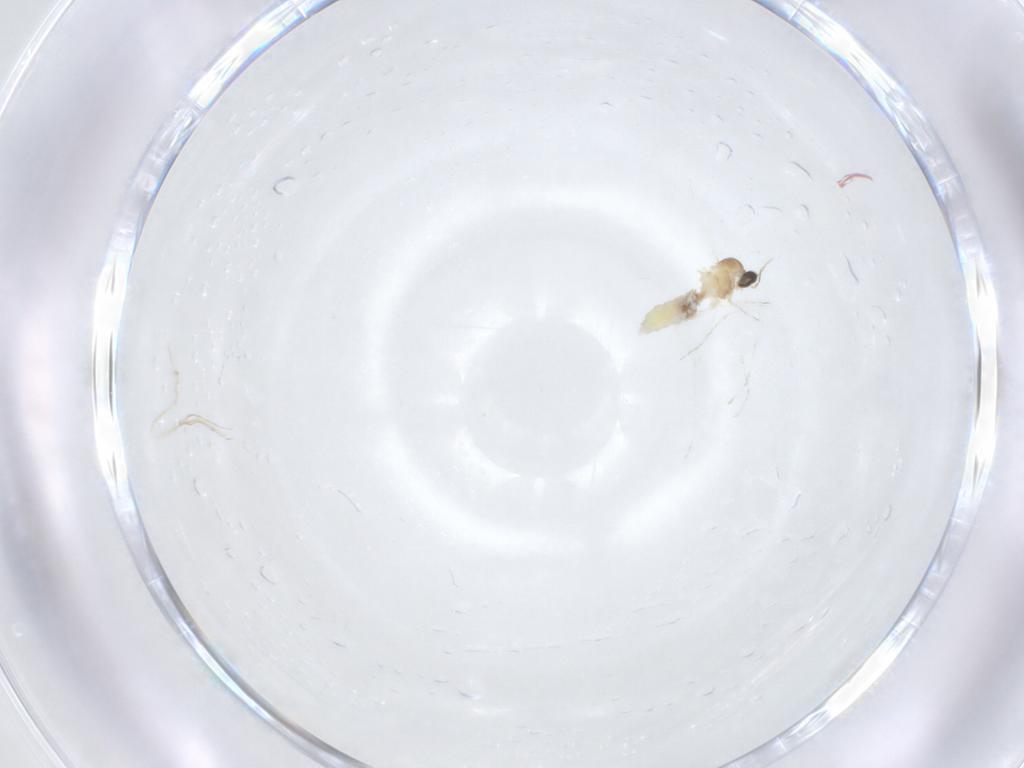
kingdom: Animalia
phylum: Arthropoda
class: Insecta
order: Diptera
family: Phoridae
